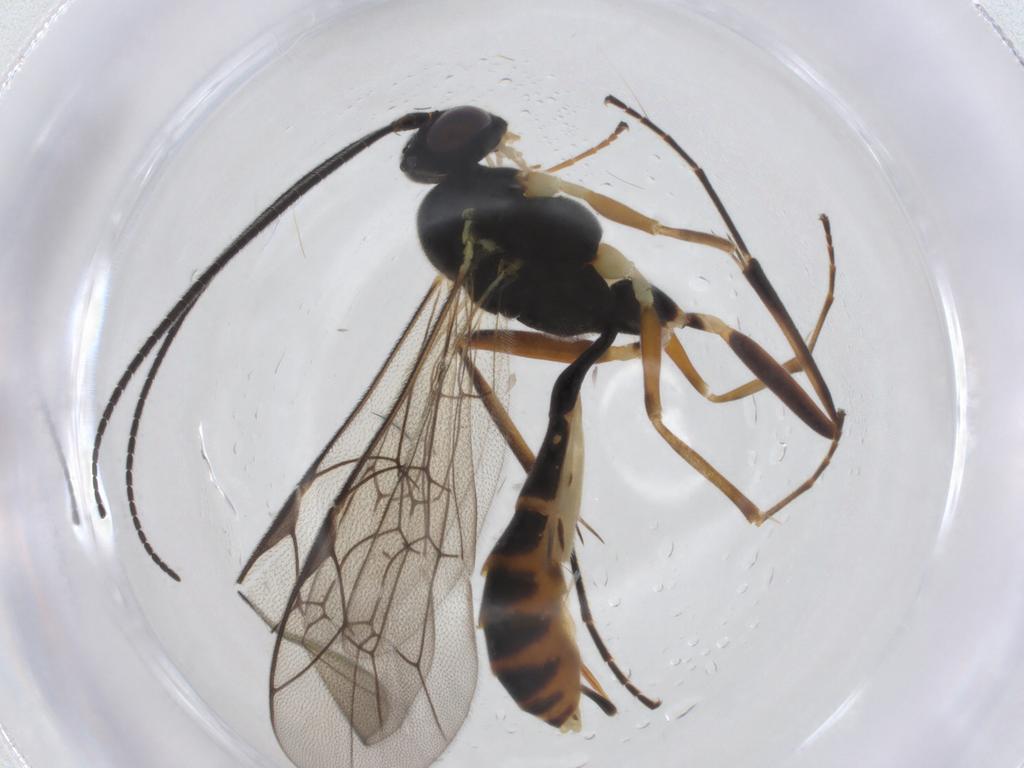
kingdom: Animalia
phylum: Arthropoda
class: Insecta
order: Hymenoptera
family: Ichneumonidae
